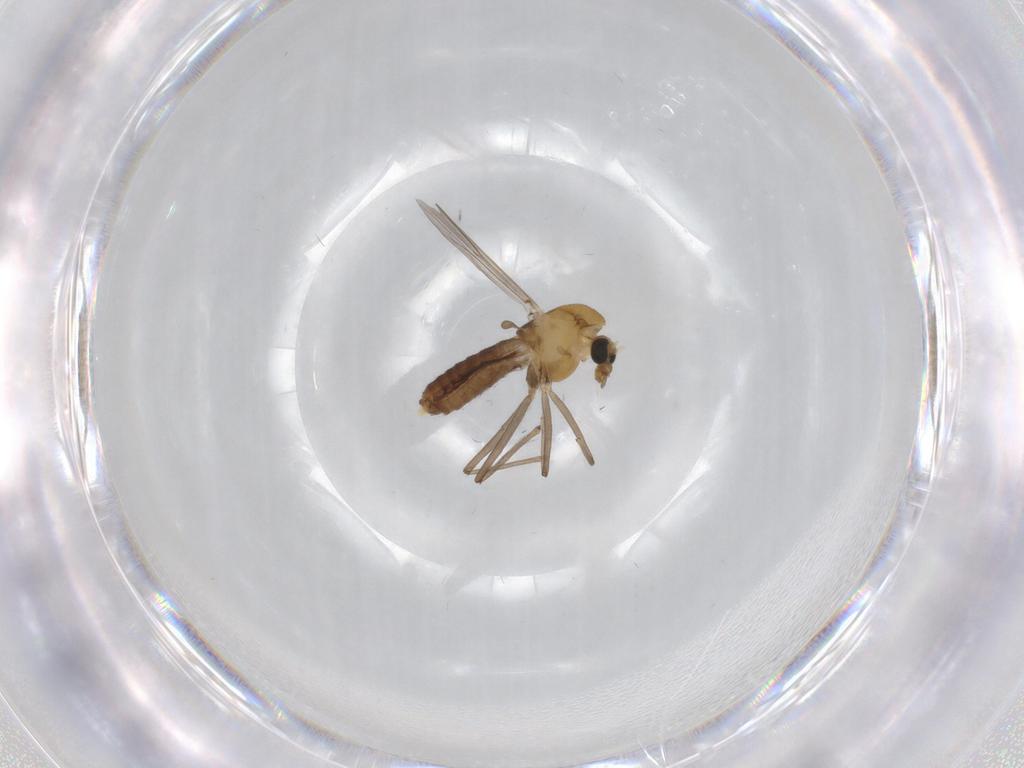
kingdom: Animalia
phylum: Arthropoda
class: Insecta
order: Diptera
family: Chironomidae
